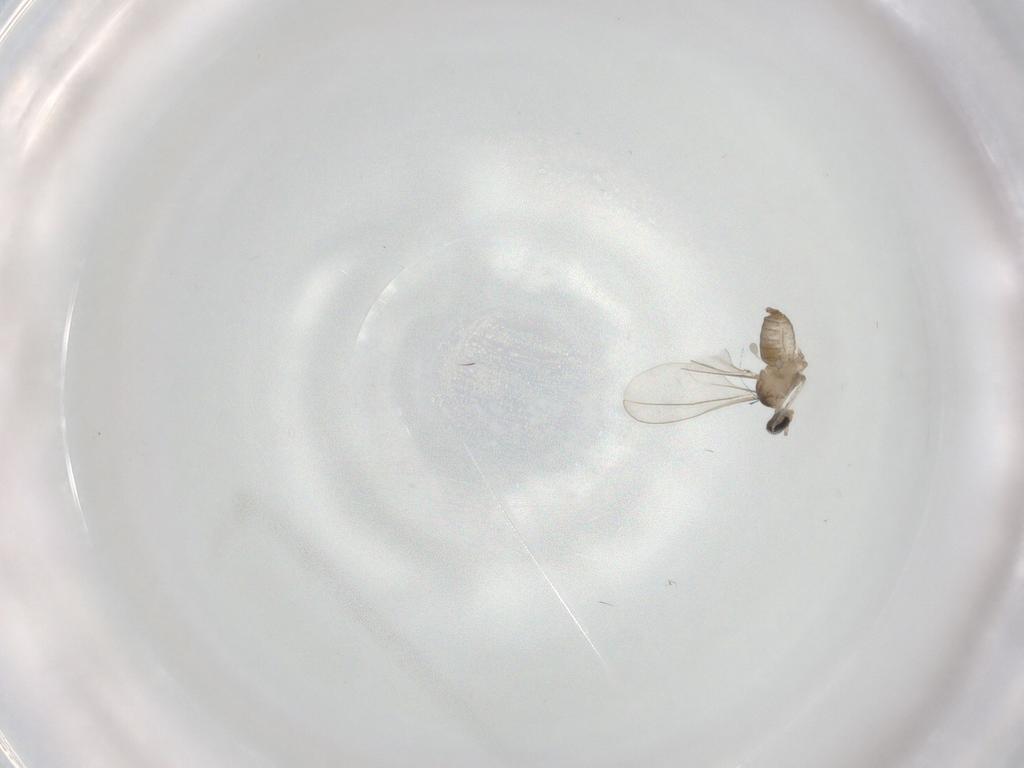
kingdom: Animalia
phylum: Arthropoda
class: Insecta
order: Diptera
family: Cecidomyiidae
